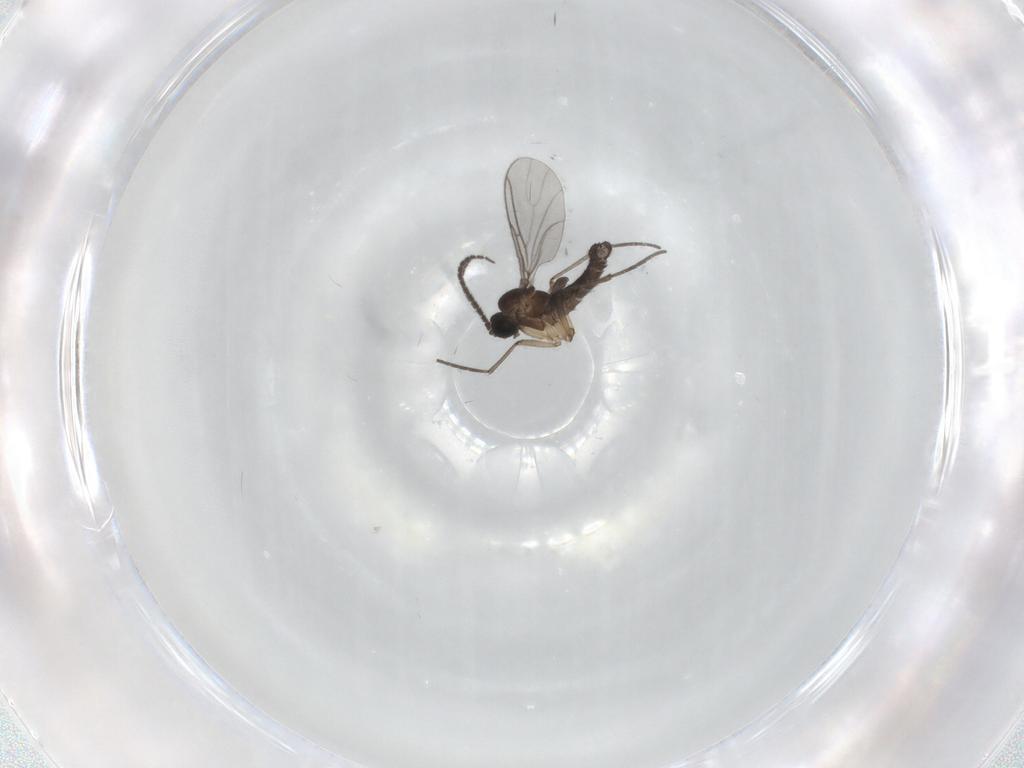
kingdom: Animalia
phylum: Arthropoda
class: Insecta
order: Diptera
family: Sciaridae
